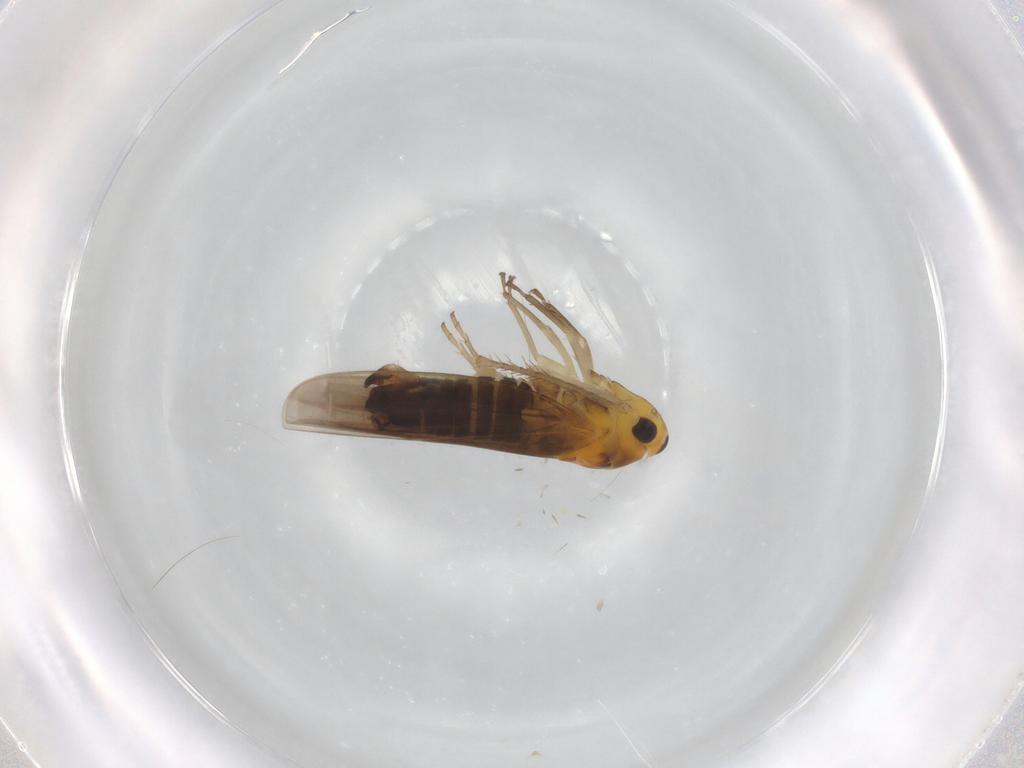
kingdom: Animalia
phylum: Arthropoda
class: Insecta
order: Hemiptera
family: Cicadellidae
